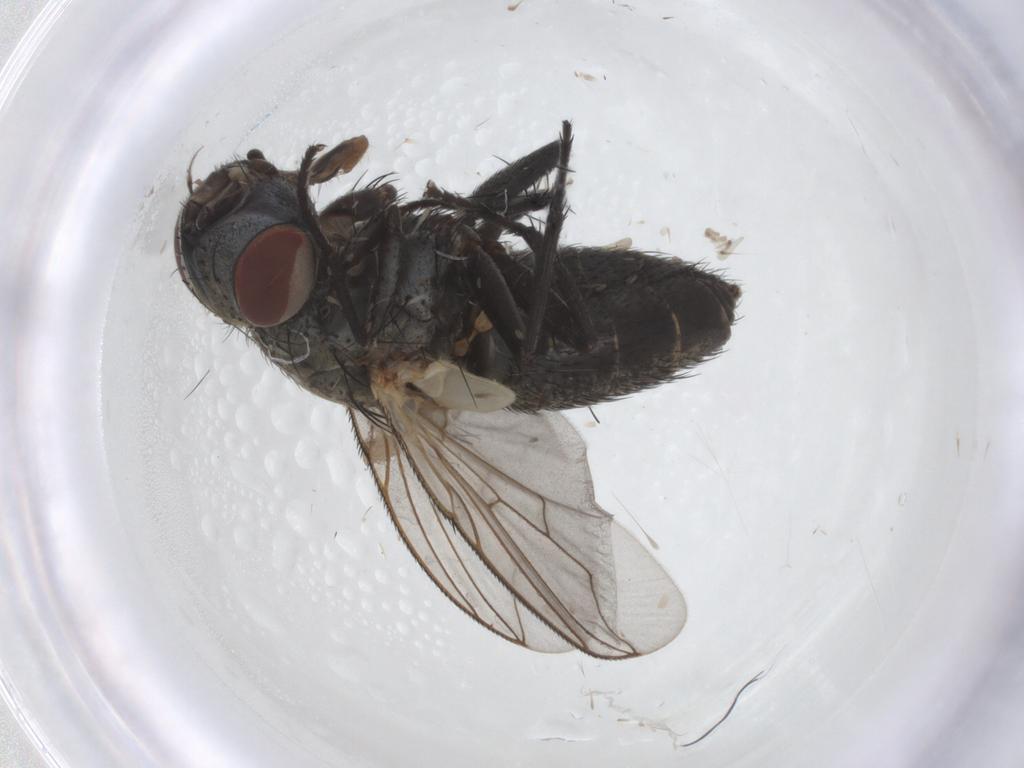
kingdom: Animalia
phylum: Arthropoda
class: Insecta
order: Diptera
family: Sarcophagidae
